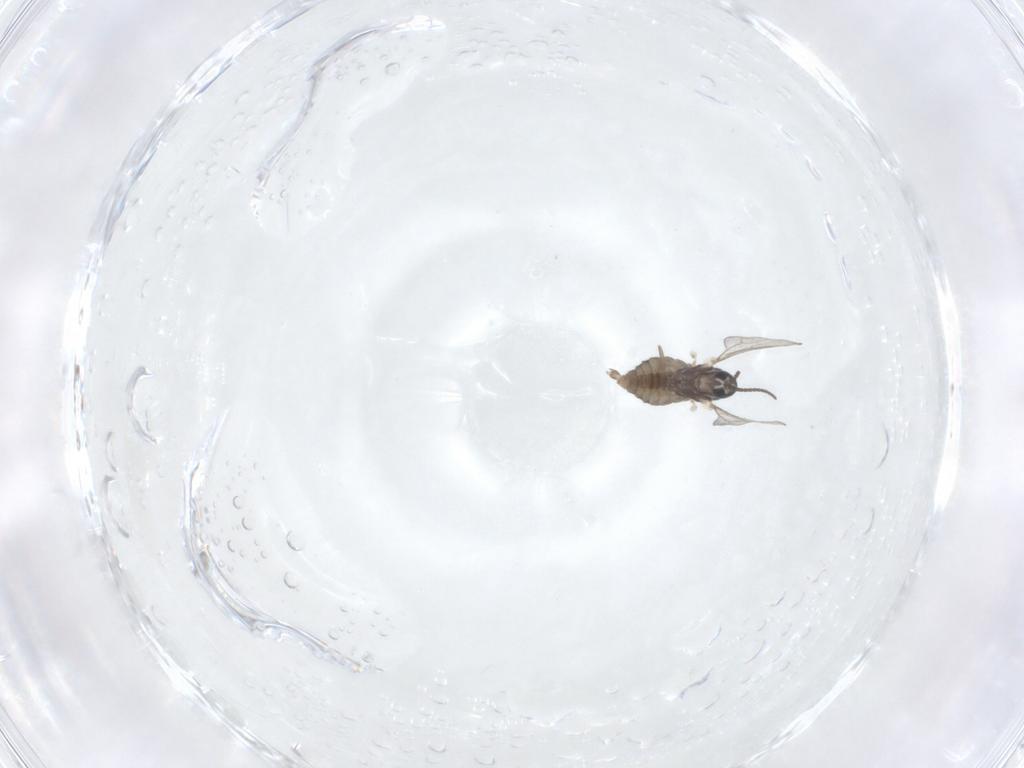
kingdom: Animalia
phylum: Arthropoda
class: Insecta
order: Diptera
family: Cecidomyiidae
